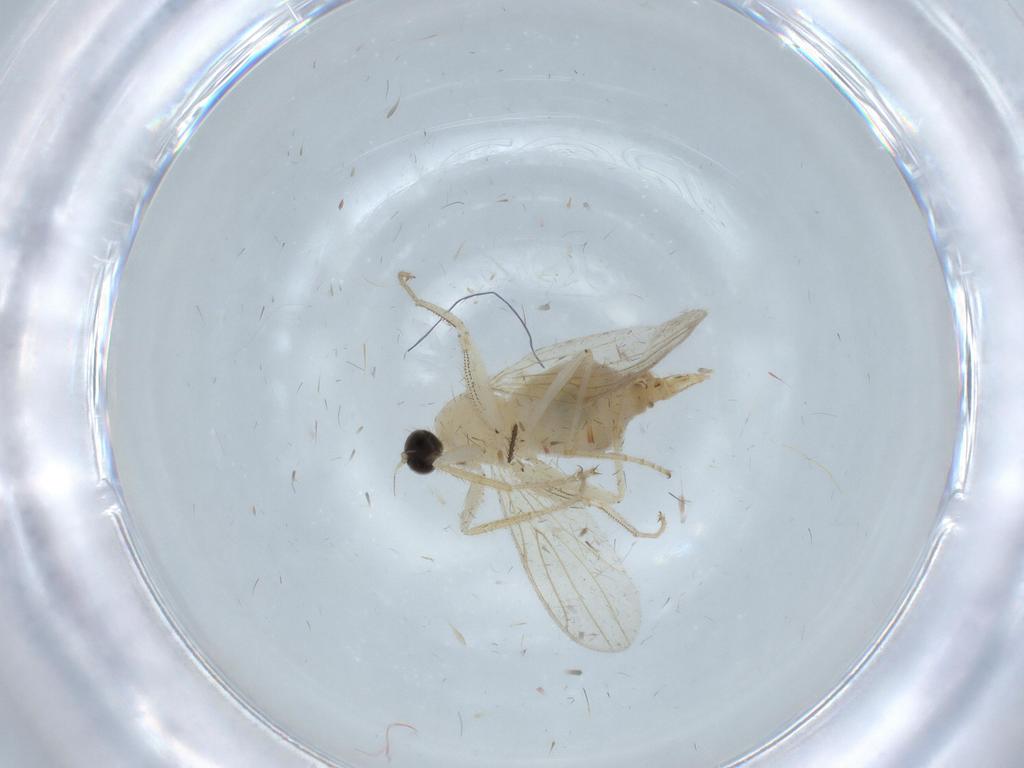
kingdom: Animalia
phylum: Arthropoda
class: Insecta
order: Diptera
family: Hybotidae
